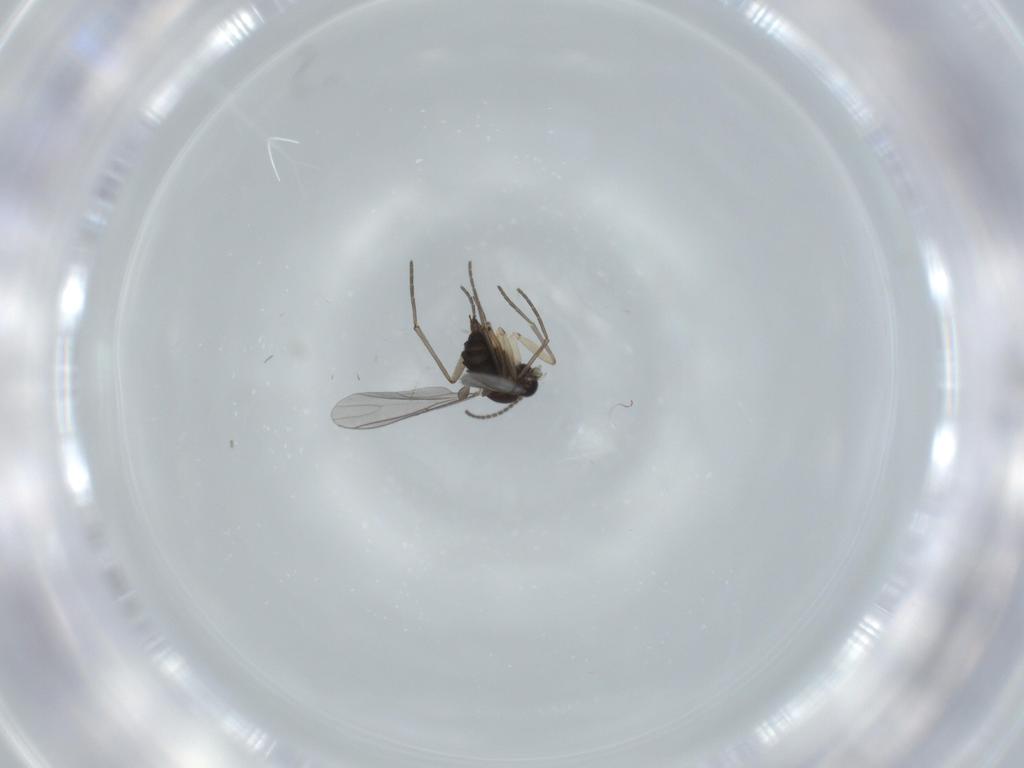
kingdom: Animalia
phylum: Arthropoda
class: Insecta
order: Diptera
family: Sciaridae
